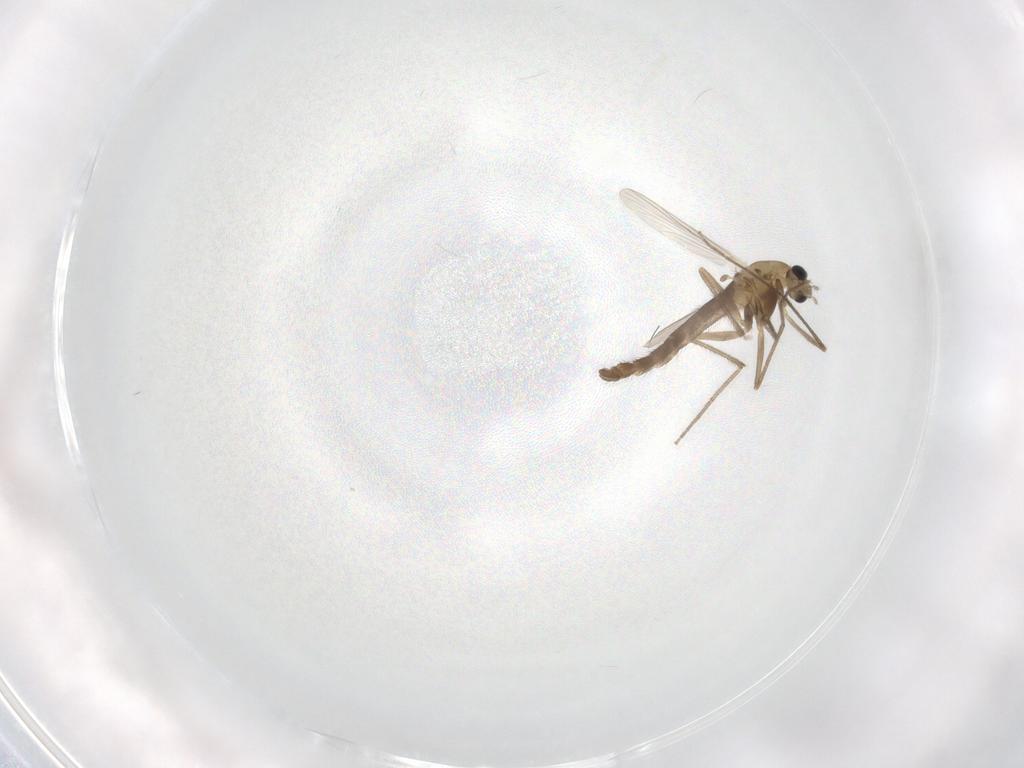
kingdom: Animalia
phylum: Arthropoda
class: Insecta
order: Diptera
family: Chironomidae
